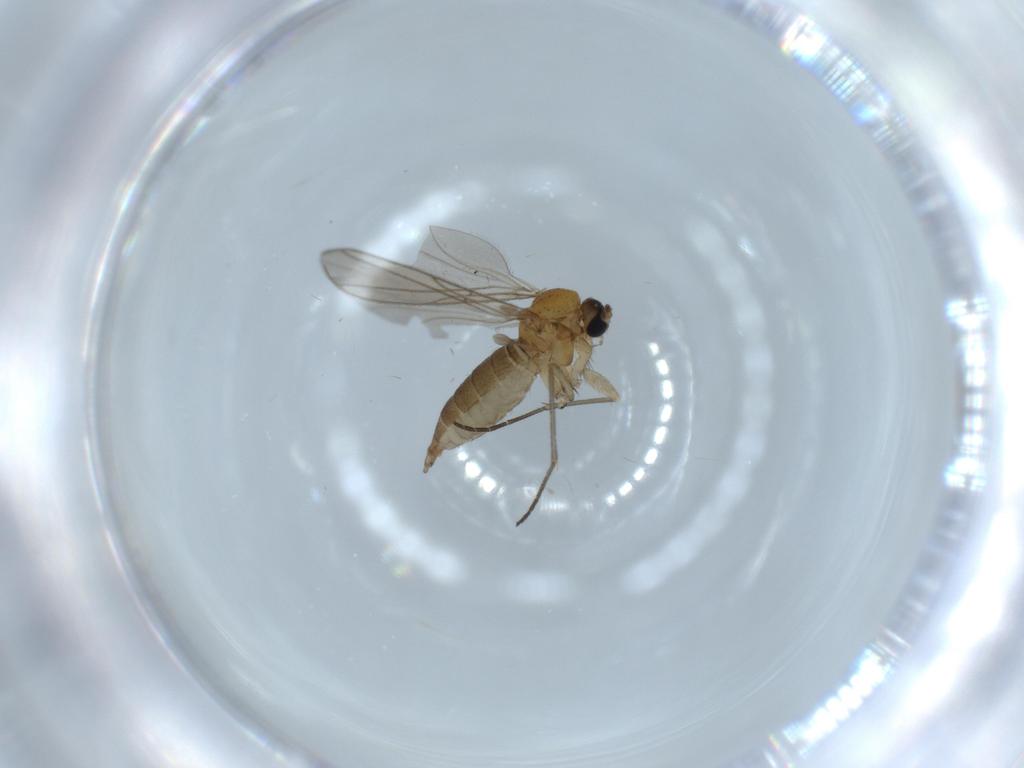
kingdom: Animalia
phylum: Arthropoda
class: Insecta
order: Diptera
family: Sciaridae
